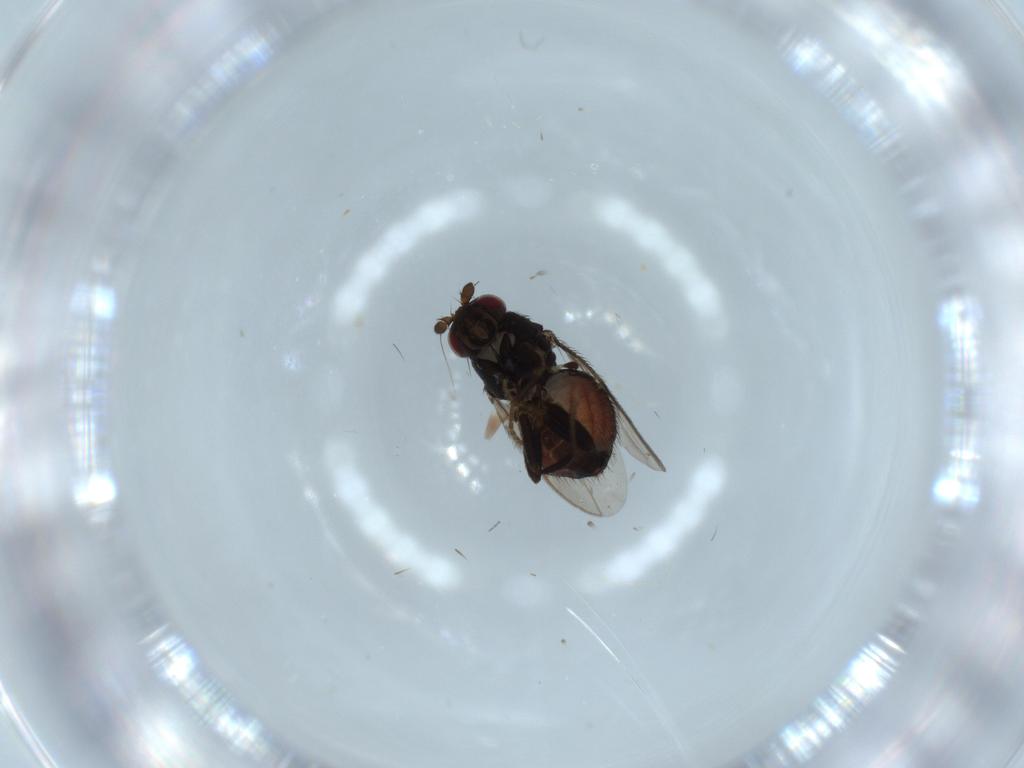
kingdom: Animalia
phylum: Arthropoda
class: Insecta
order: Diptera
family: Sphaeroceridae
